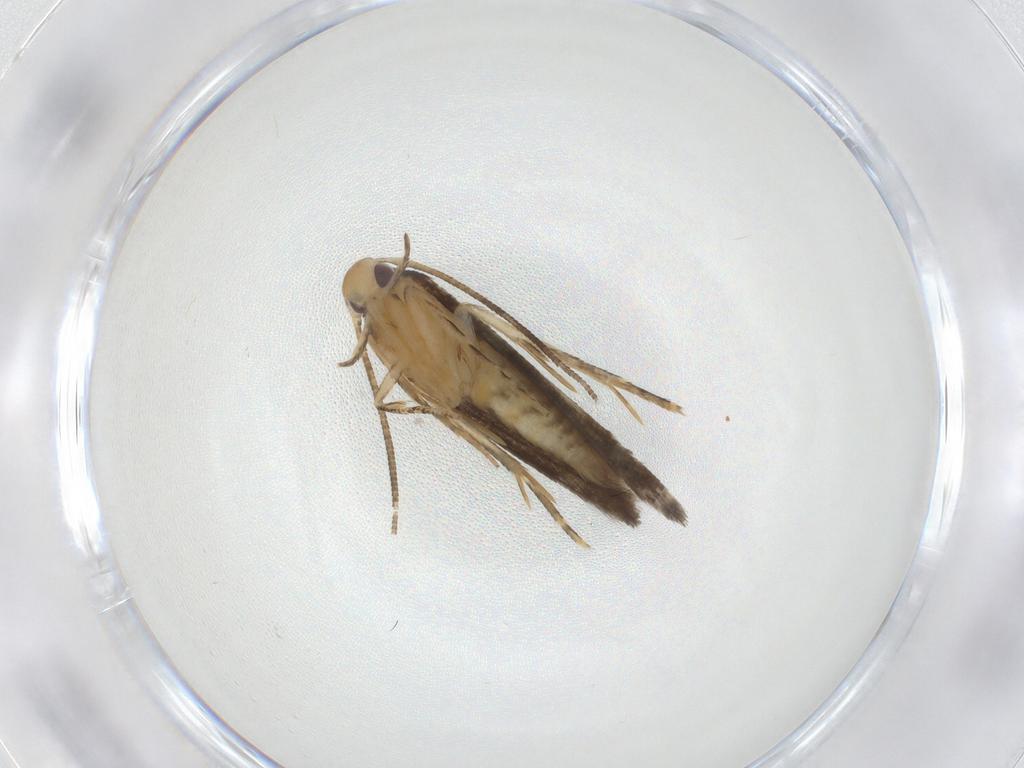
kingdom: Animalia
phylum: Arthropoda
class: Insecta
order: Lepidoptera
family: Momphidae
